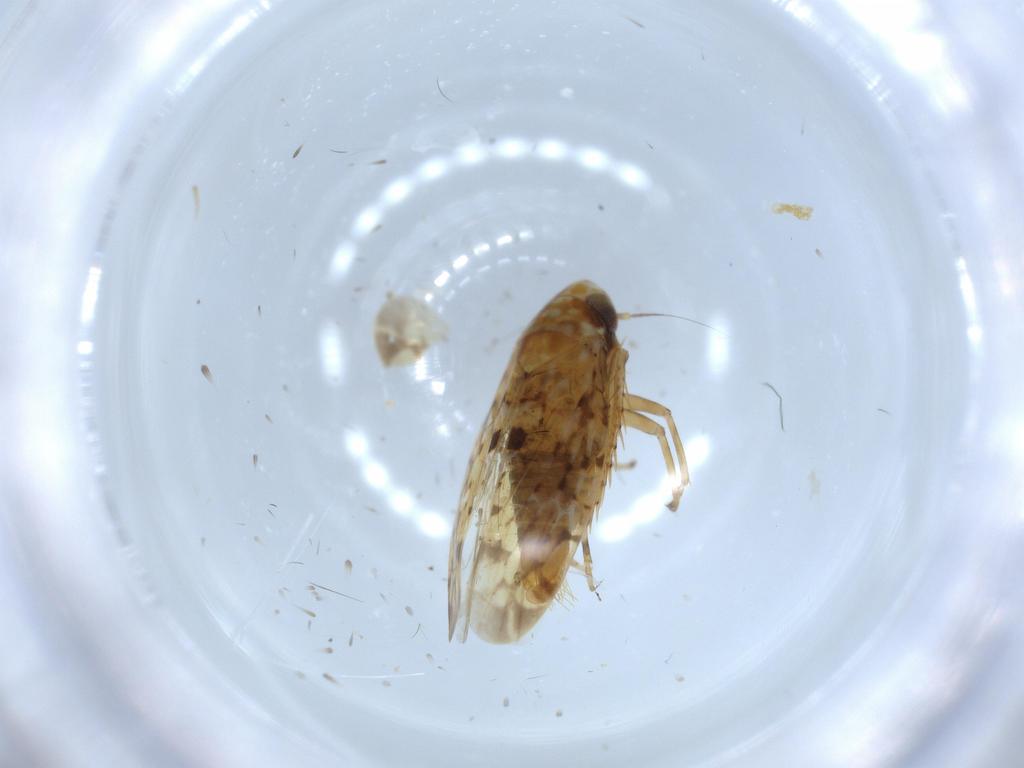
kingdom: Animalia
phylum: Arthropoda
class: Insecta
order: Hemiptera
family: Cicadellidae
